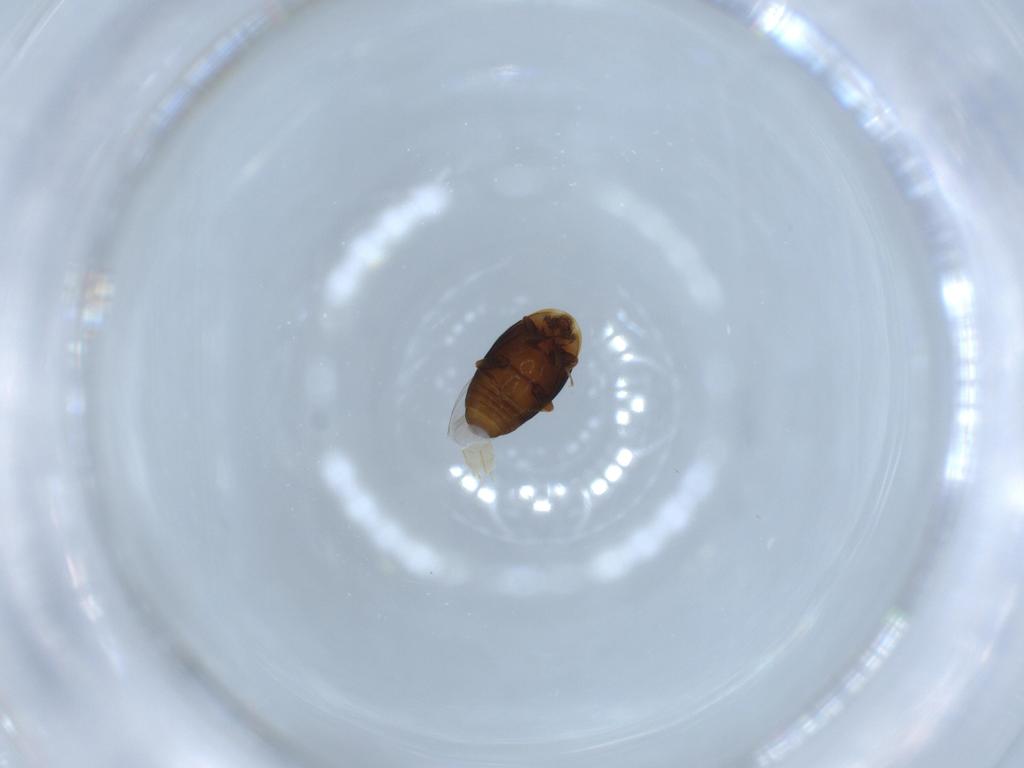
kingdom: Animalia
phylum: Arthropoda
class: Insecta
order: Coleoptera
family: Corylophidae
